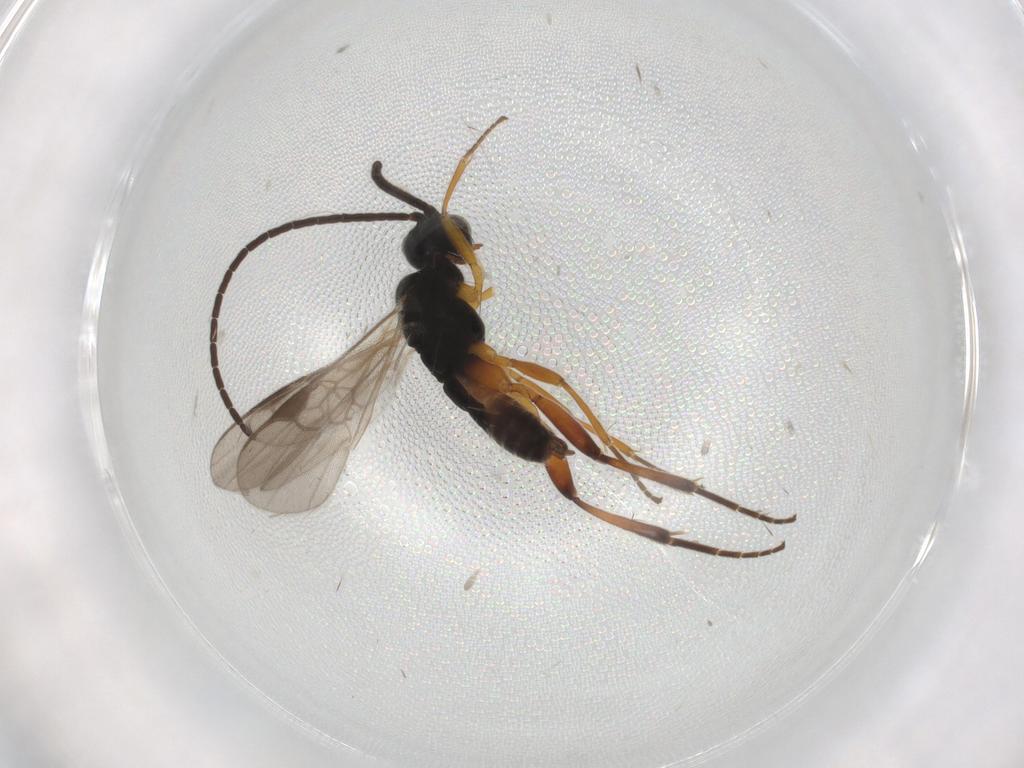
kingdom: Animalia
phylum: Arthropoda
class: Insecta
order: Hymenoptera
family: Braconidae
